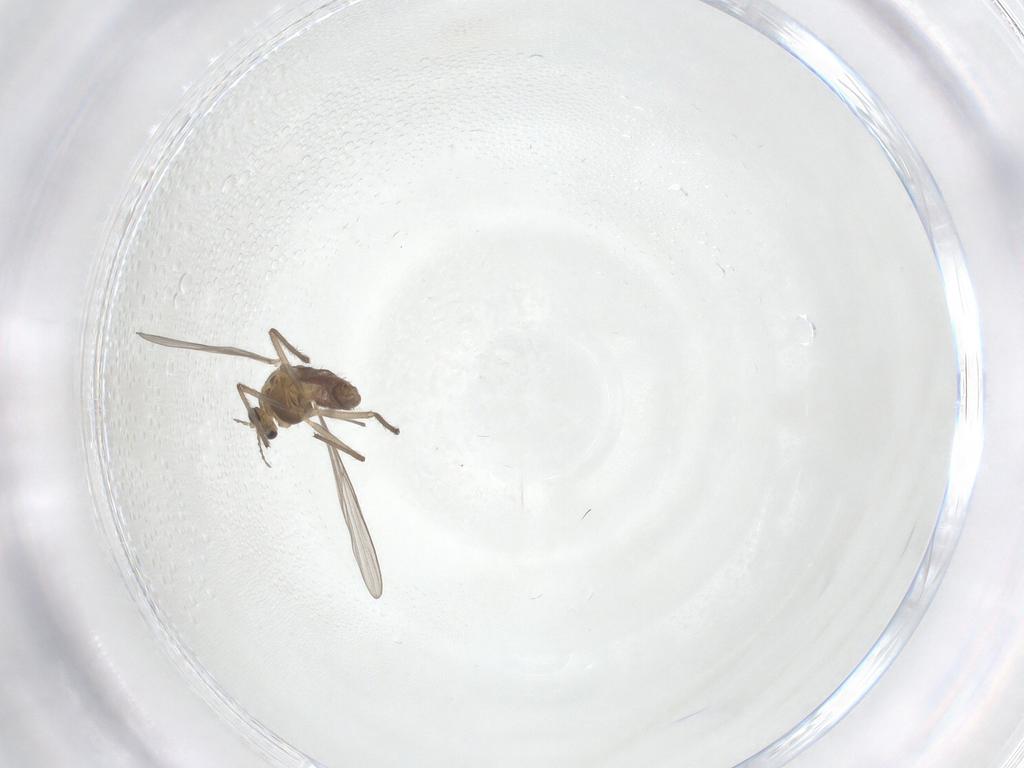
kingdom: Animalia
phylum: Arthropoda
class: Insecta
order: Diptera
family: Chironomidae
